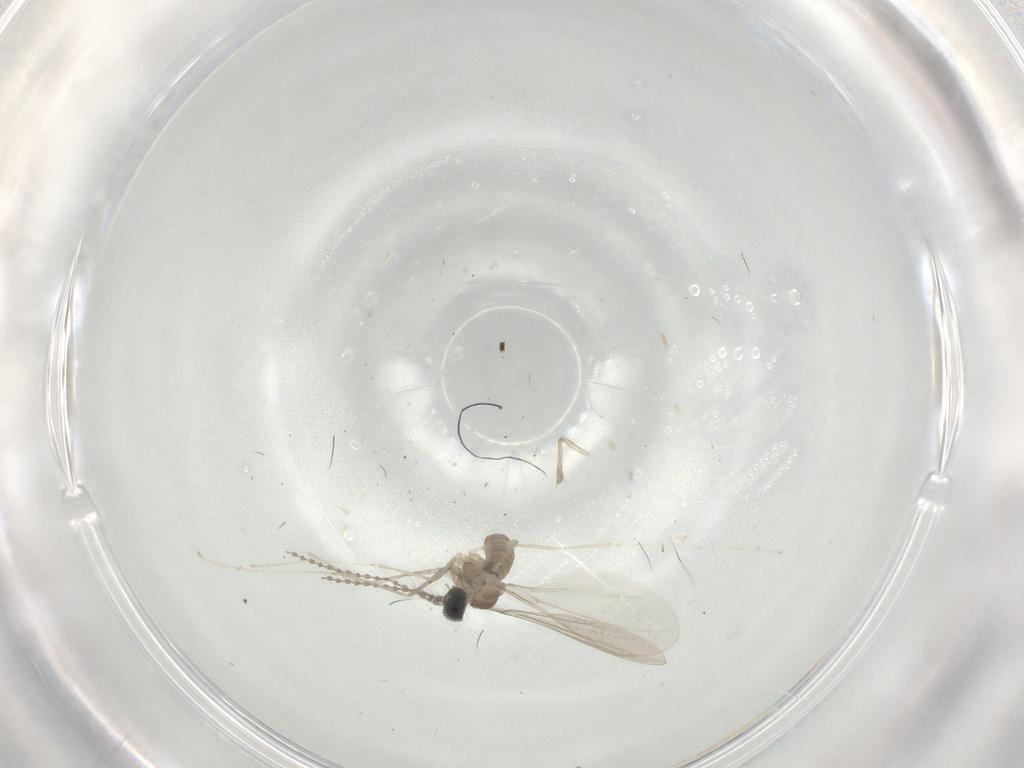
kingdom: Animalia
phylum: Arthropoda
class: Insecta
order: Diptera
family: Cecidomyiidae
